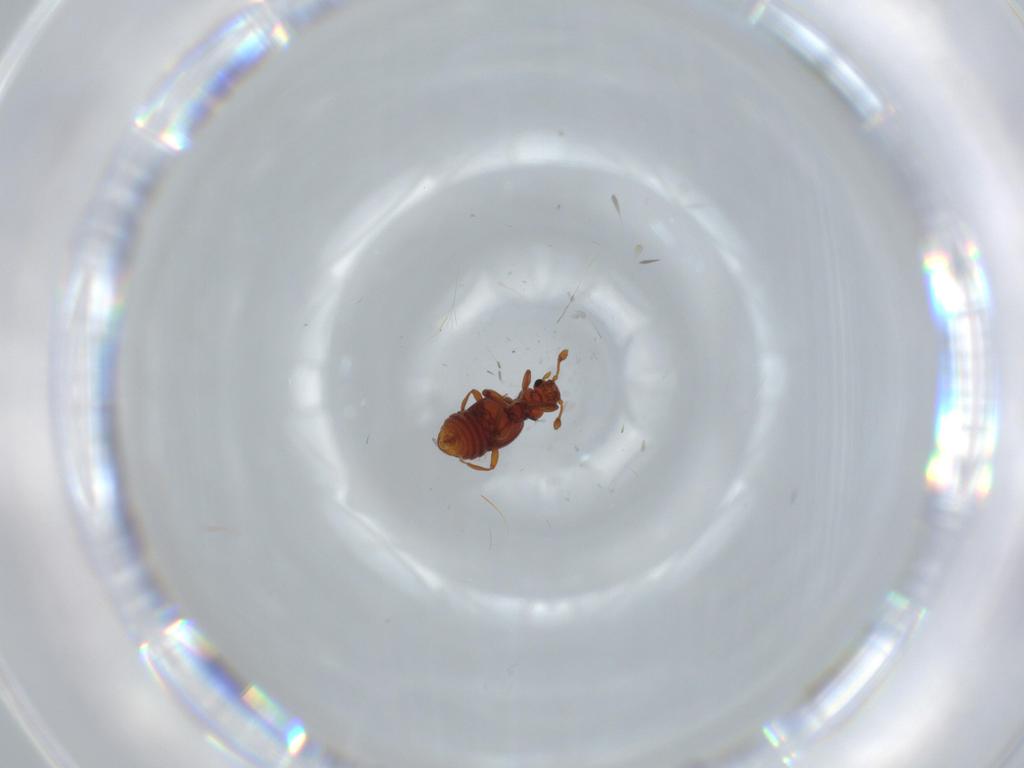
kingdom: Animalia
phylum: Arthropoda
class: Insecta
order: Coleoptera
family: Staphylinidae
